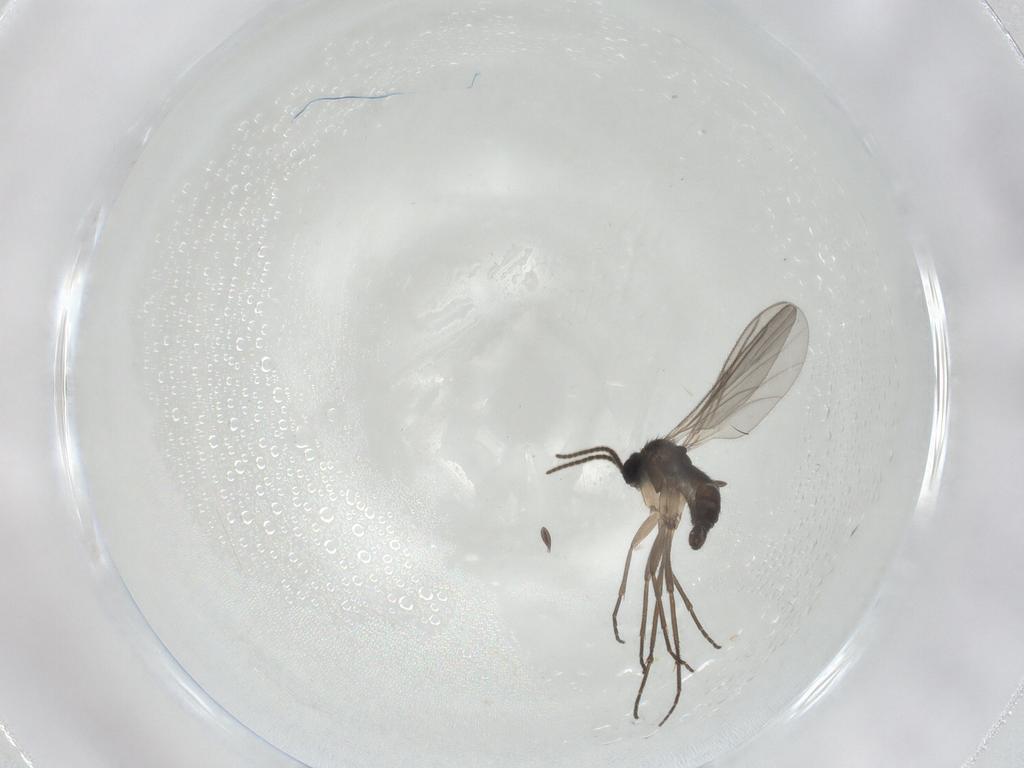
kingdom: Animalia
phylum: Arthropoda
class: Insecta
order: Diptera
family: Sciaridae
